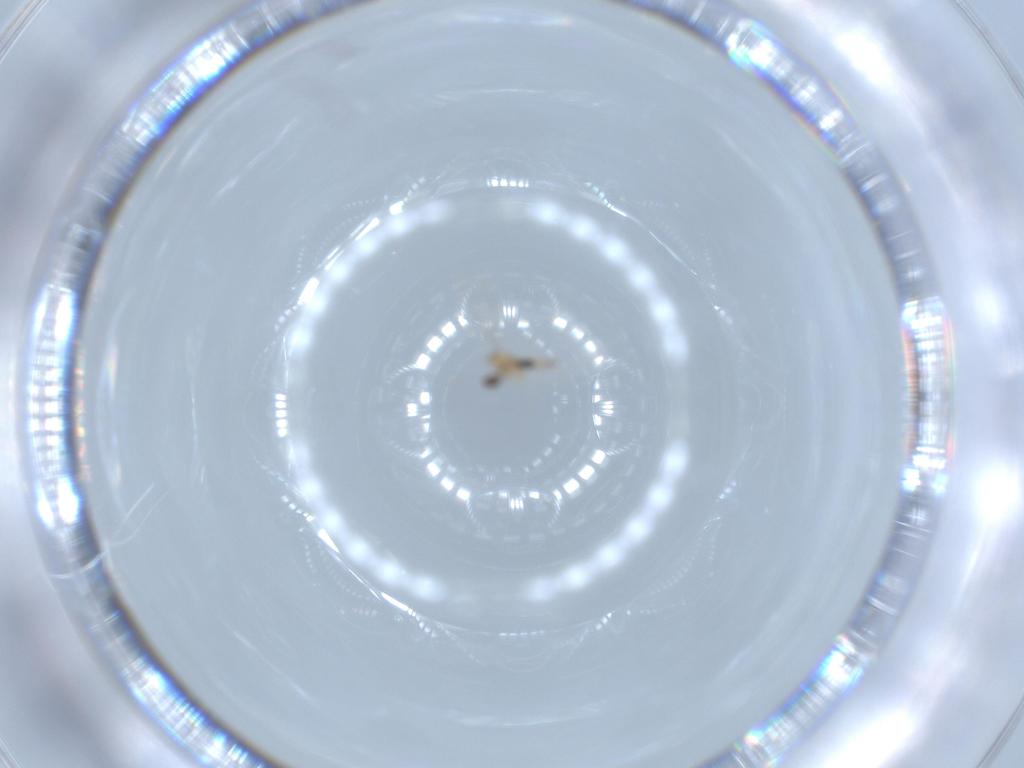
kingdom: Animalia
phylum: Arthropoda
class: Insecta
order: Diptera
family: Cecidomyiidae
